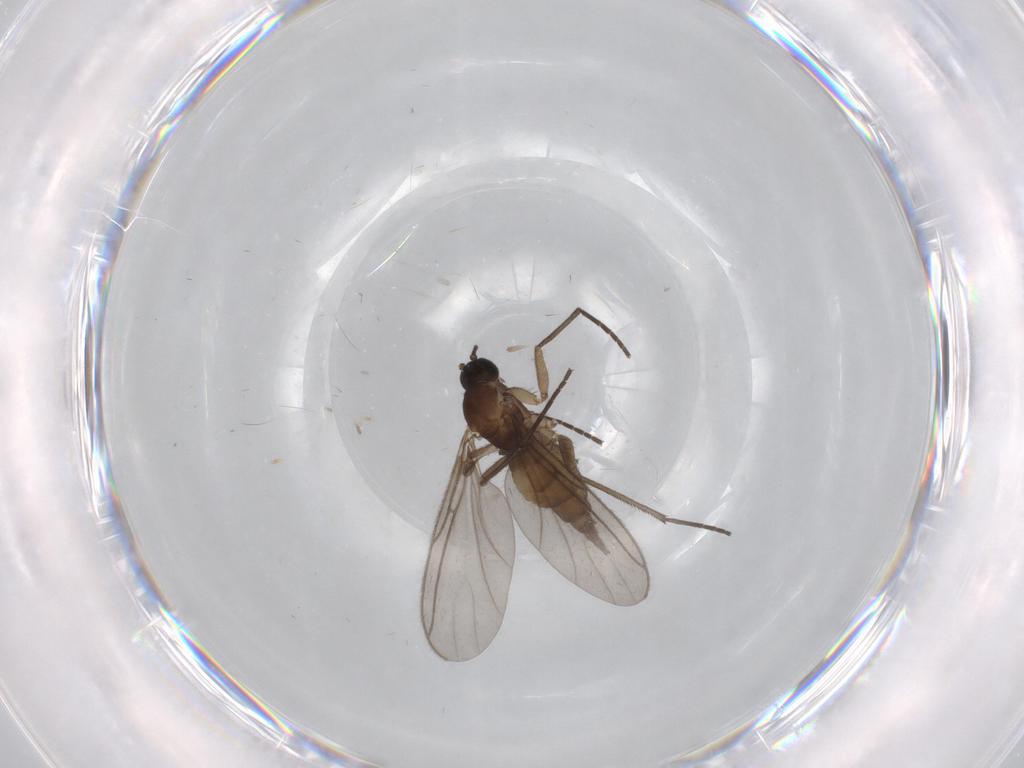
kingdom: Animalia
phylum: Arthropoda
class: Insecta
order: Diptera
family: Sciaridae
